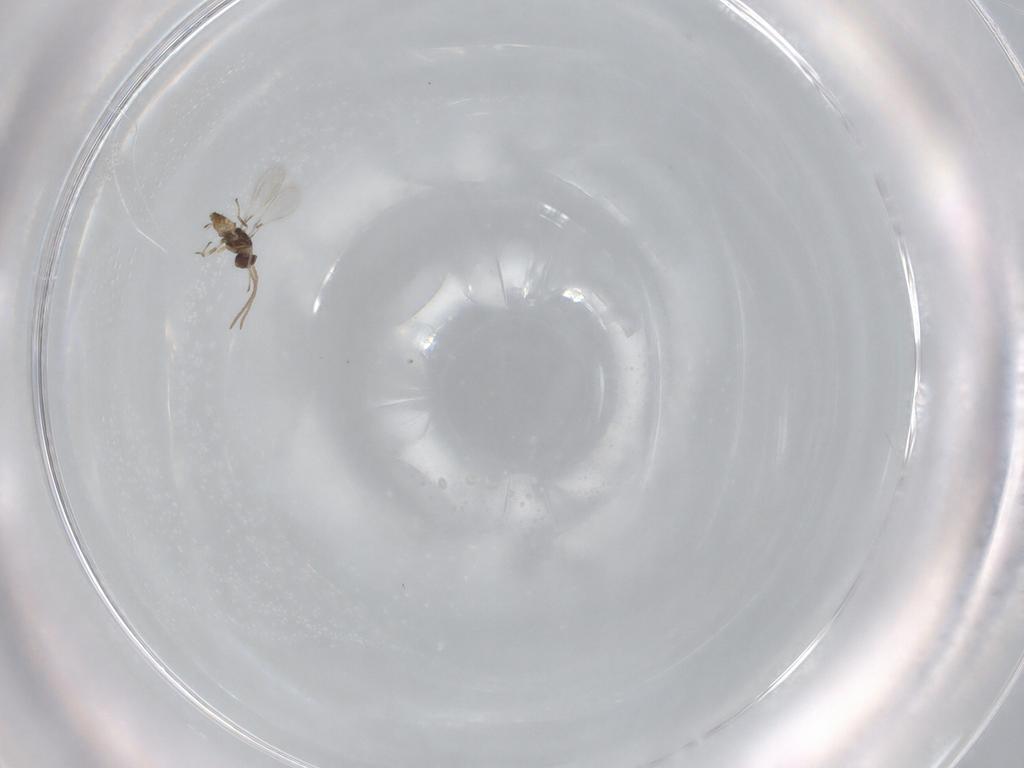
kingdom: Animalia
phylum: Arthropoda
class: Insecta
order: Hymenoptera
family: Mymaridae
